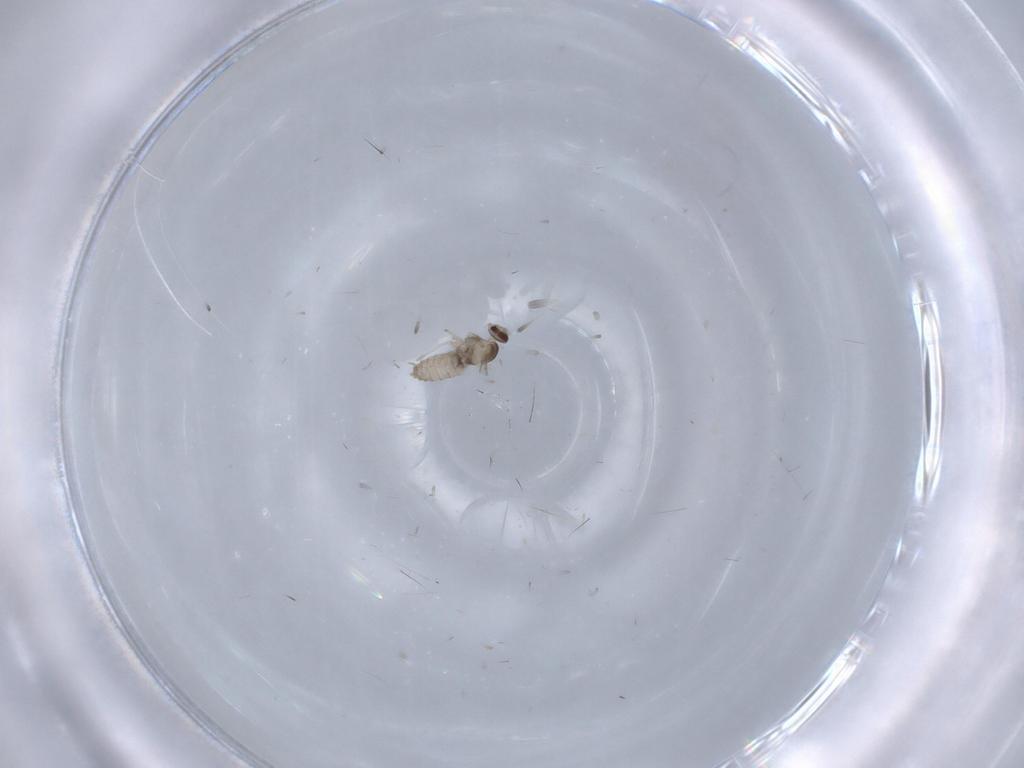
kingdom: Animalia
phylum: Arthropoda
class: Insecta
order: Diptera
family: Cecidomyiidae
